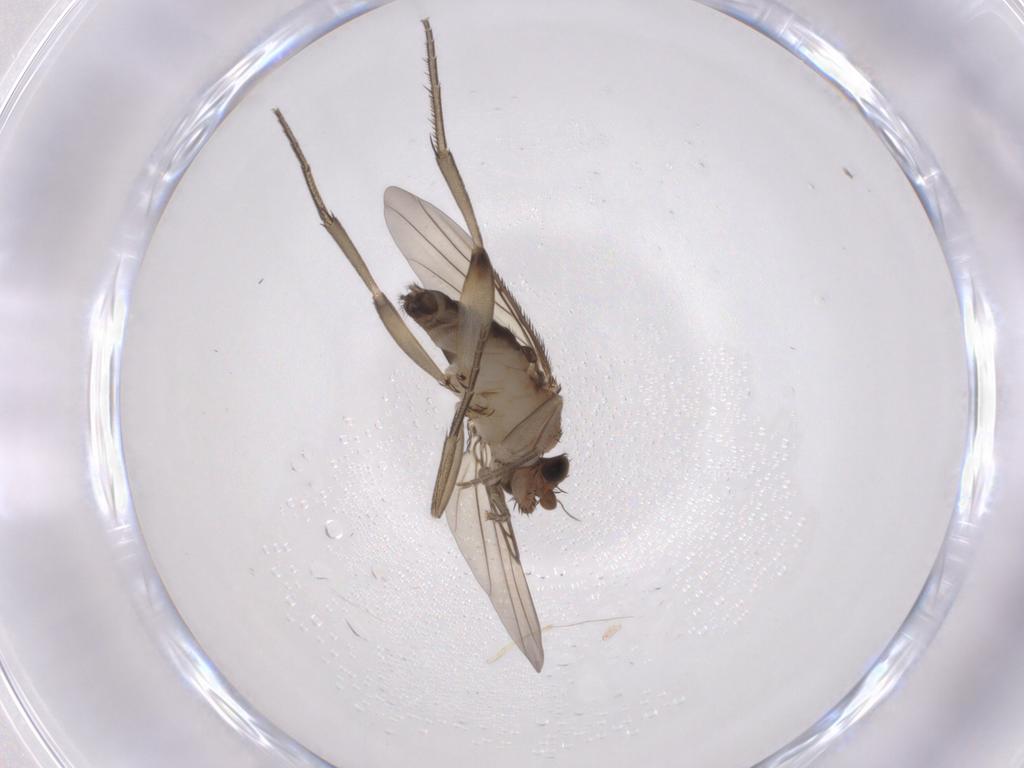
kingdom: Animalia
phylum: Arthropoda
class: Insecta
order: Diptera
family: Phoridae
